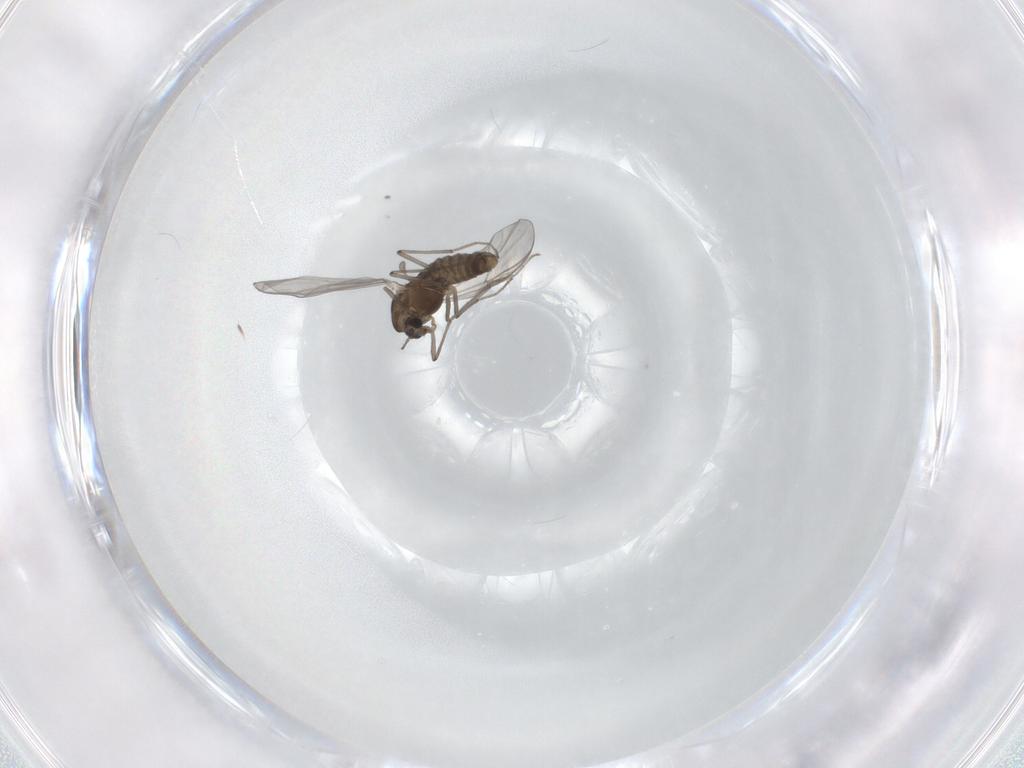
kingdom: Animalia
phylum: Arthropoda
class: Insecta
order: Diptera
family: Chironomidae
